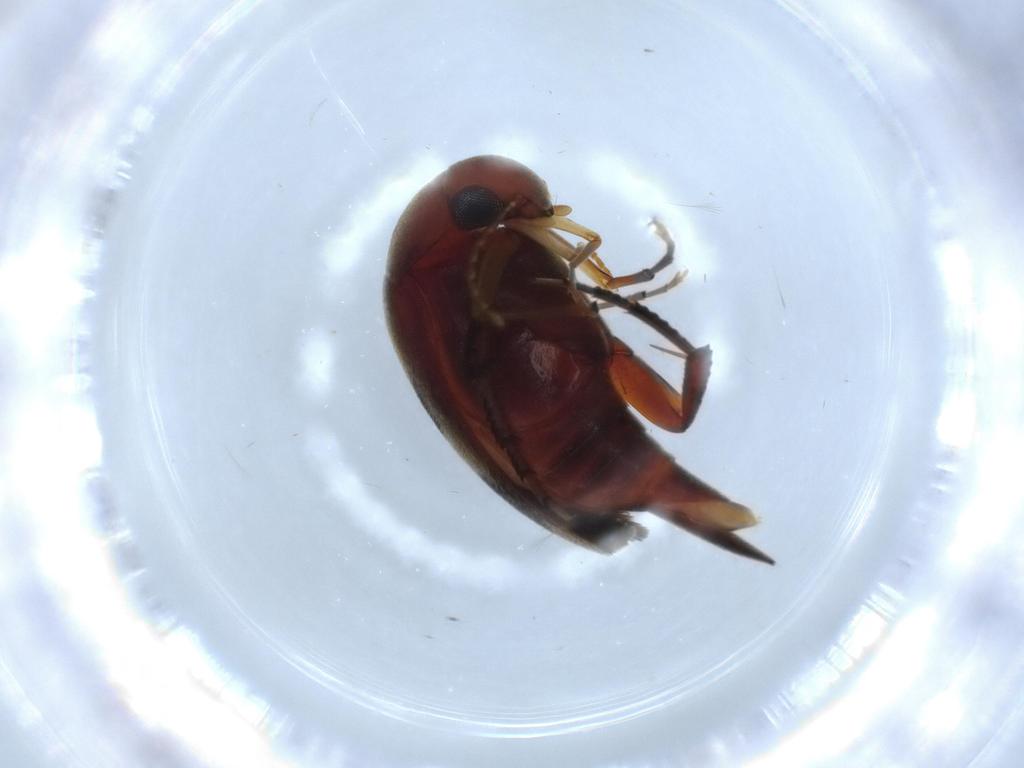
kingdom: Animalia
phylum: Arthropoda
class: Insecta
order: Coleoptera
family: Mordellidae
